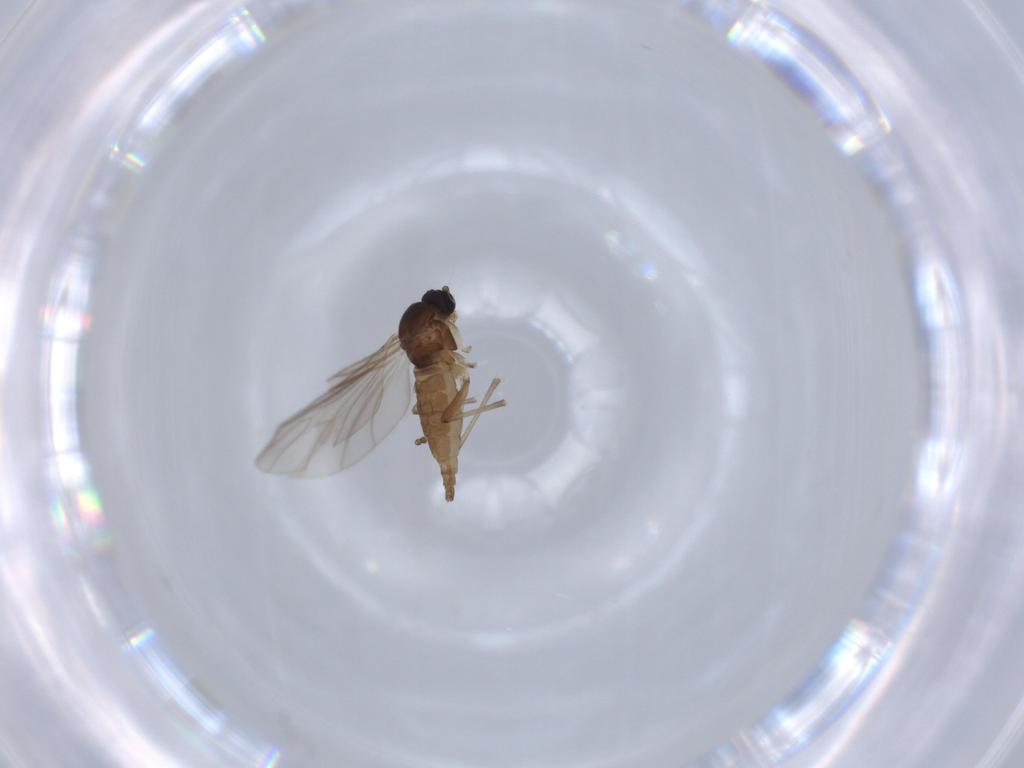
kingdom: Animalia
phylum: Arthropoda
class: Insecta
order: Diptera
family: Sciaridae
